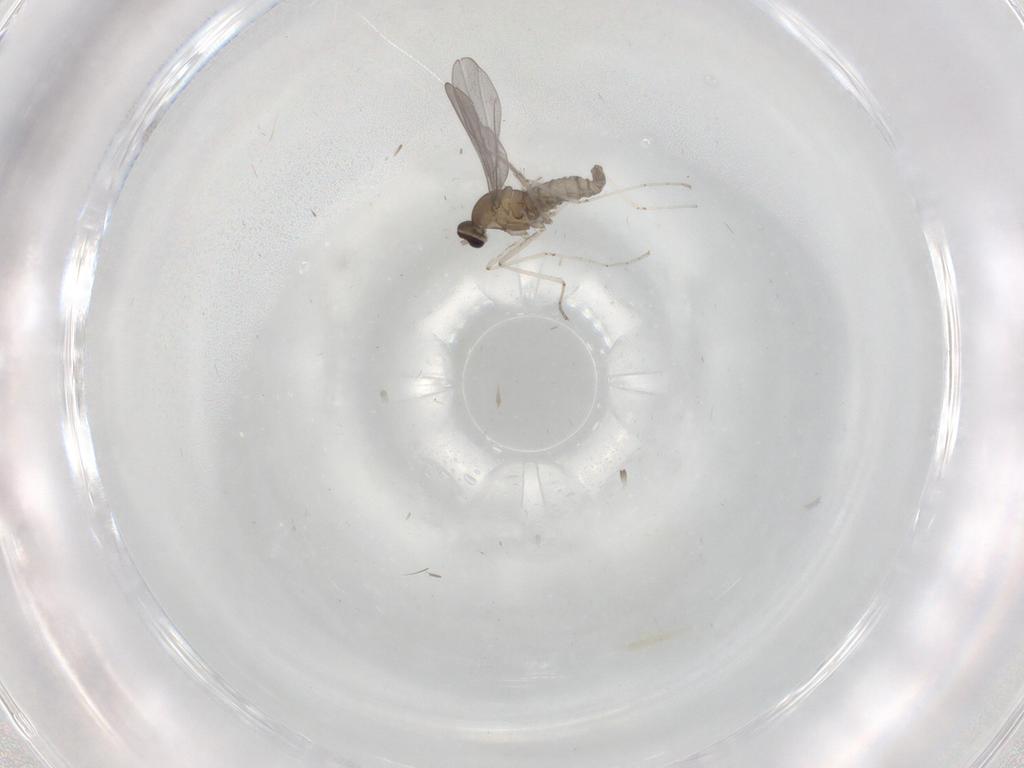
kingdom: Animalia
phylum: Arthropoda
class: Insecta
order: Diptera
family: Cecidomyiidae
